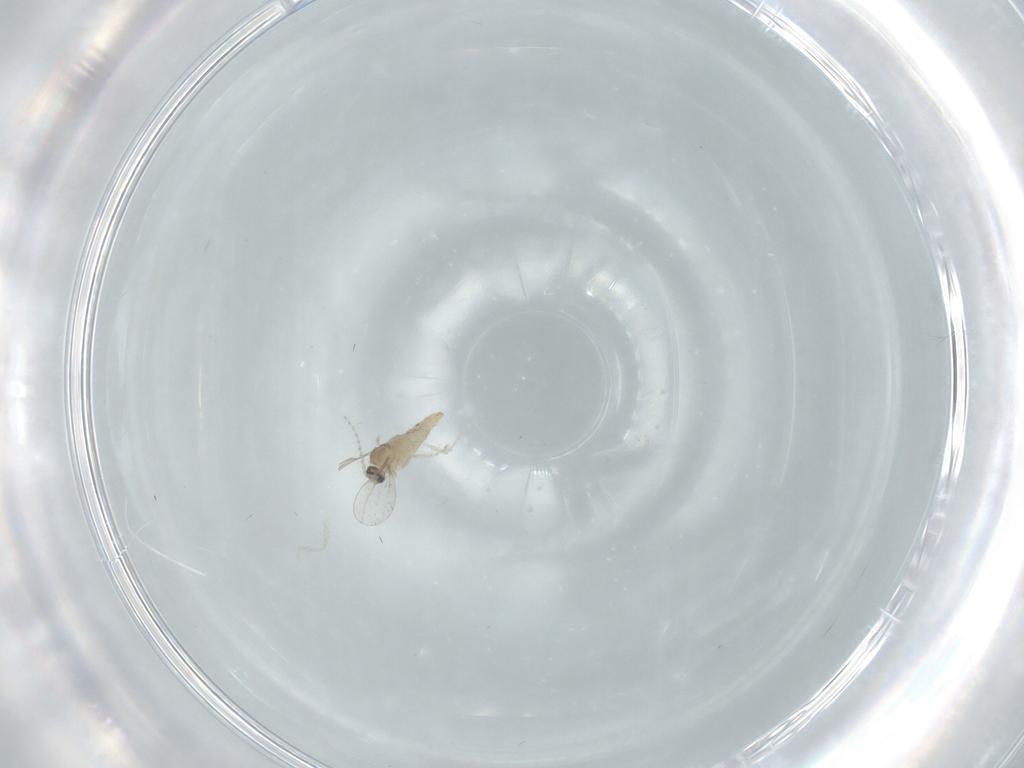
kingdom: Animalia
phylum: Arthropoda
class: Insecta
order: Diptera
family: Cecidomyiidae
